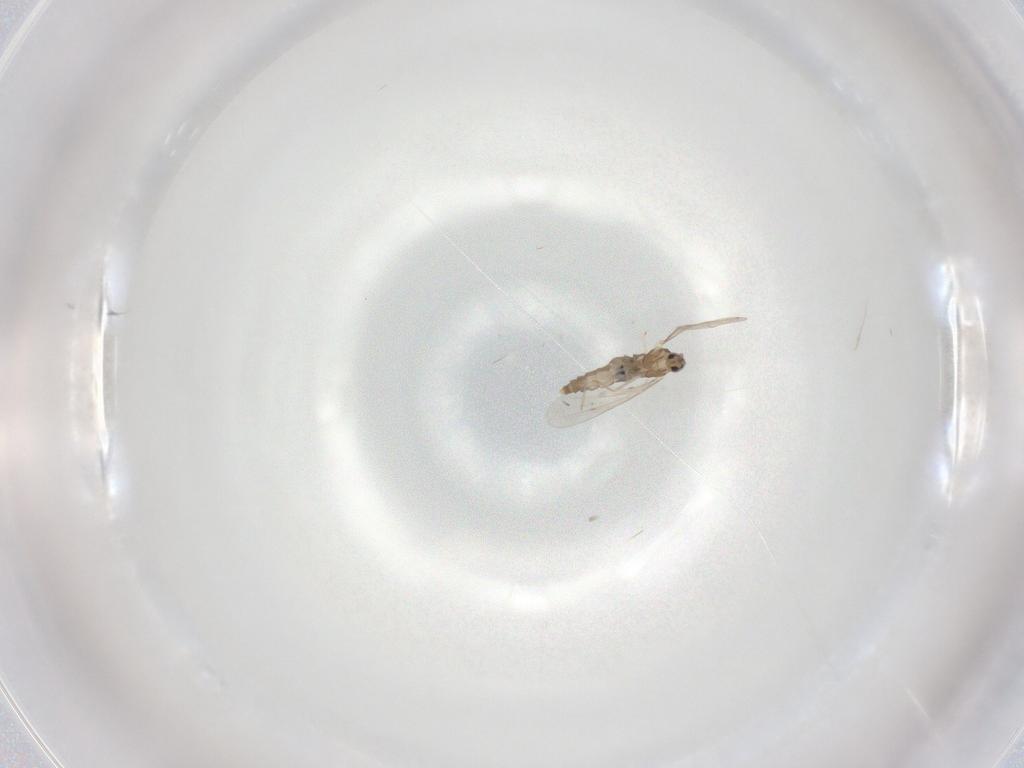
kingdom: Animalia
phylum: Arthropoda
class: Insecta
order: Diptera
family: Cecidomyiidae
